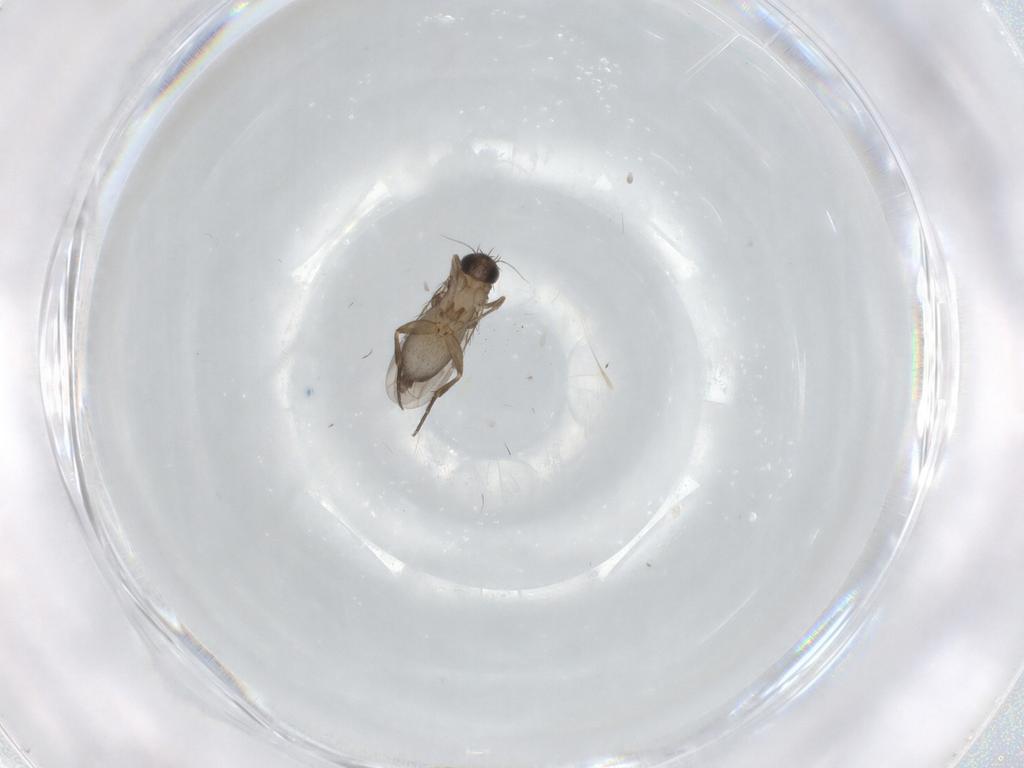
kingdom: Animalia
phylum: Arthropoda
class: Insecta
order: Diptera
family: Phoridae
